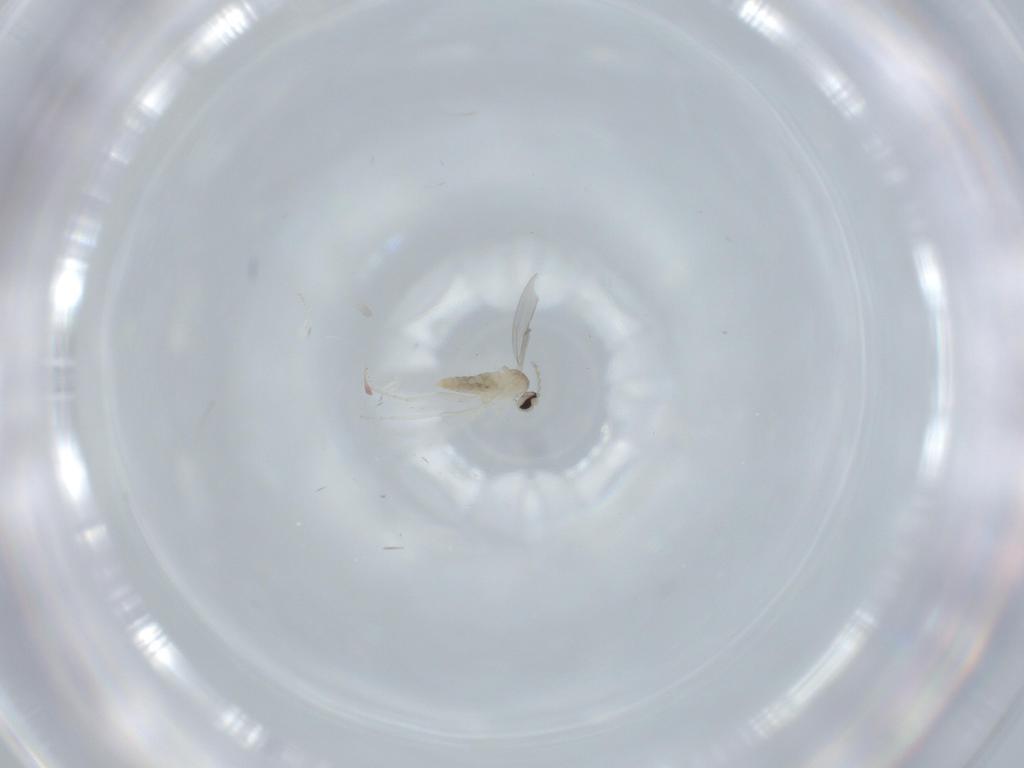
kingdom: Animalia
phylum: Arthropoda
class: Insecta
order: Diptera
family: Cecidomyiidae
